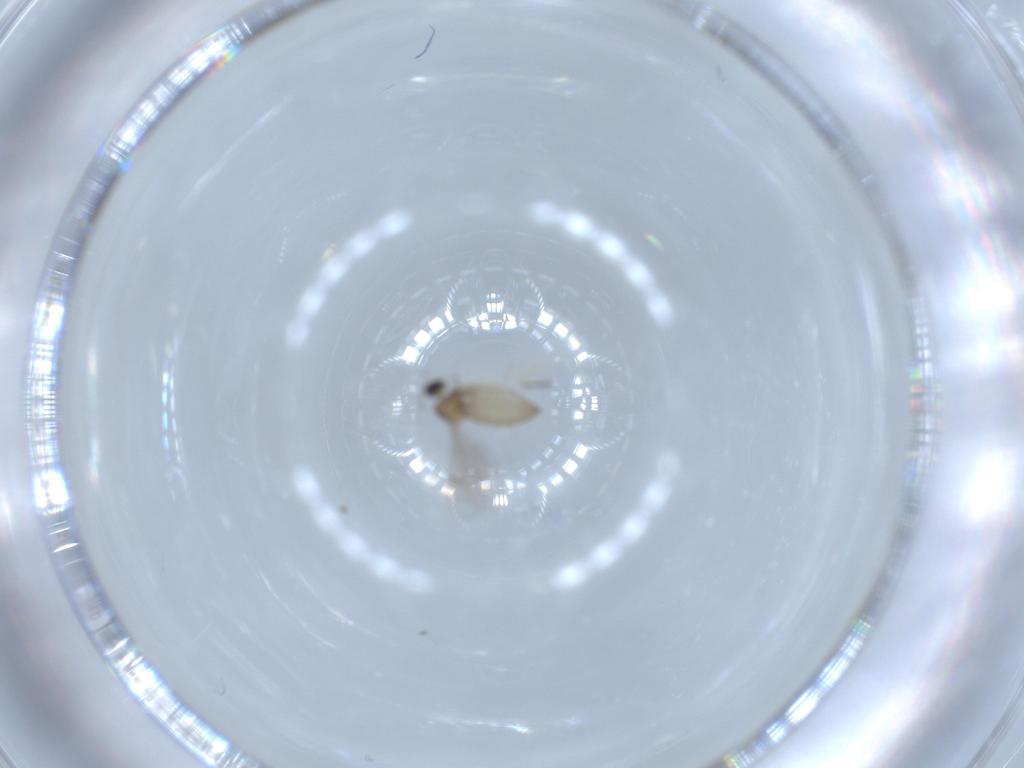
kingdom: Animalia
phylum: Arthropoda
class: Insecta
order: Diptera
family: Cecidomyiidae
